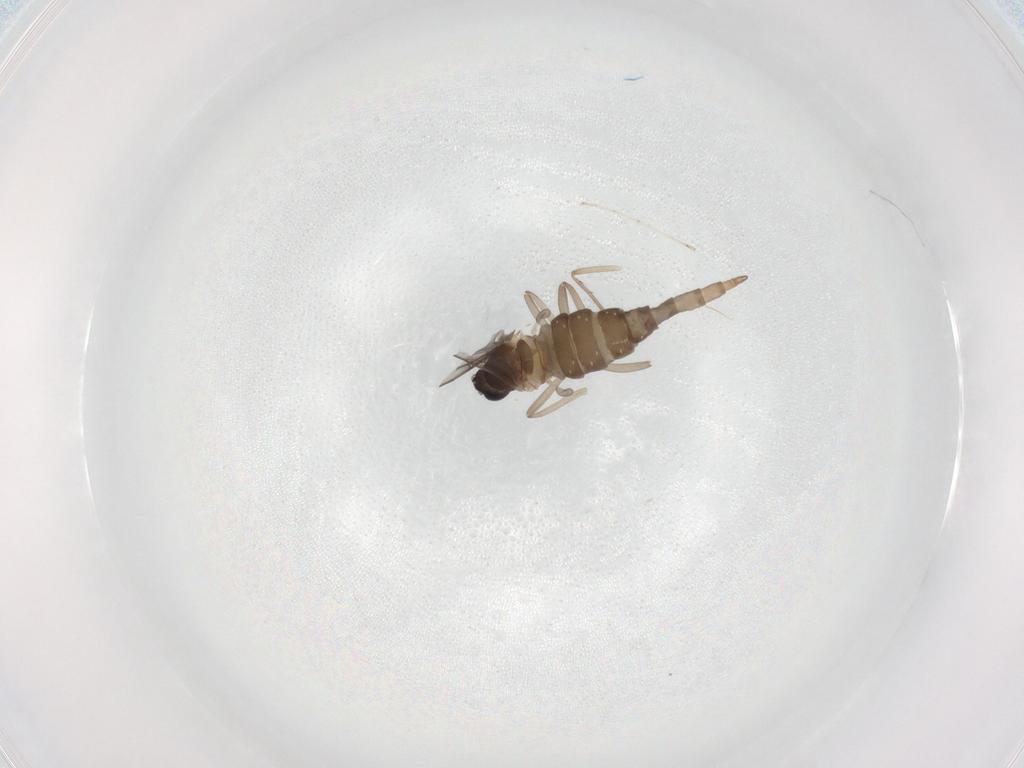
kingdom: Animalia
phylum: Arthropoda
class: Insecta
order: Diptera
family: Cecidomyiidae
